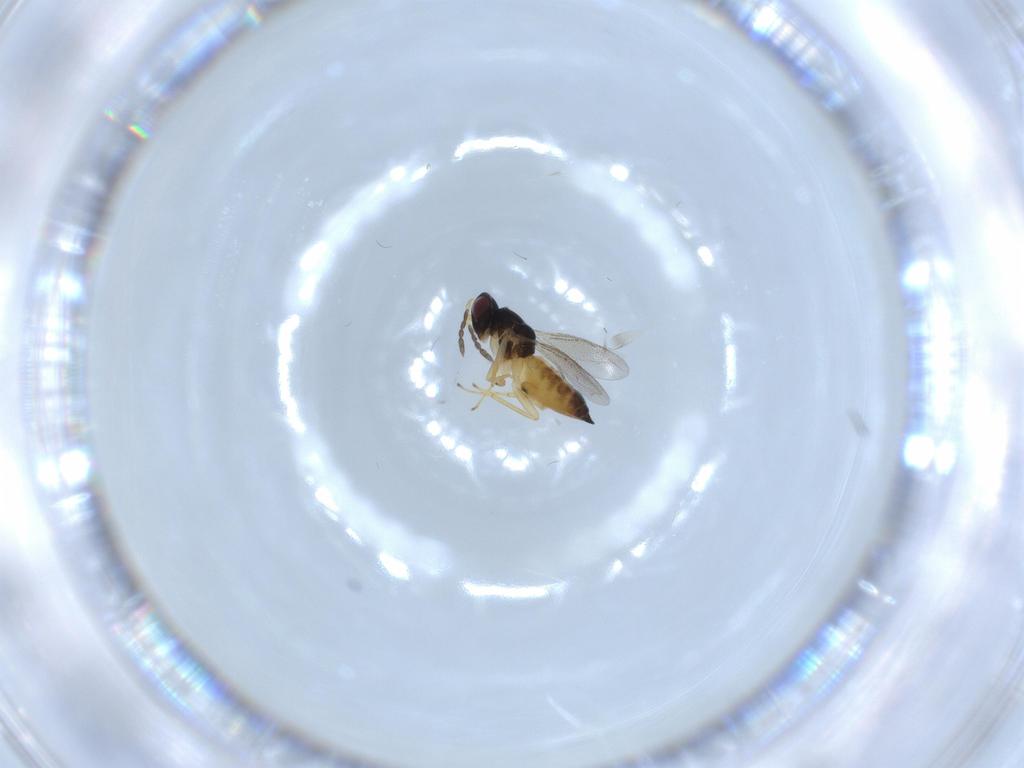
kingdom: Animalia
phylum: Arthropoda
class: Insecta
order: Hymenoptera
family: Eulophidae
